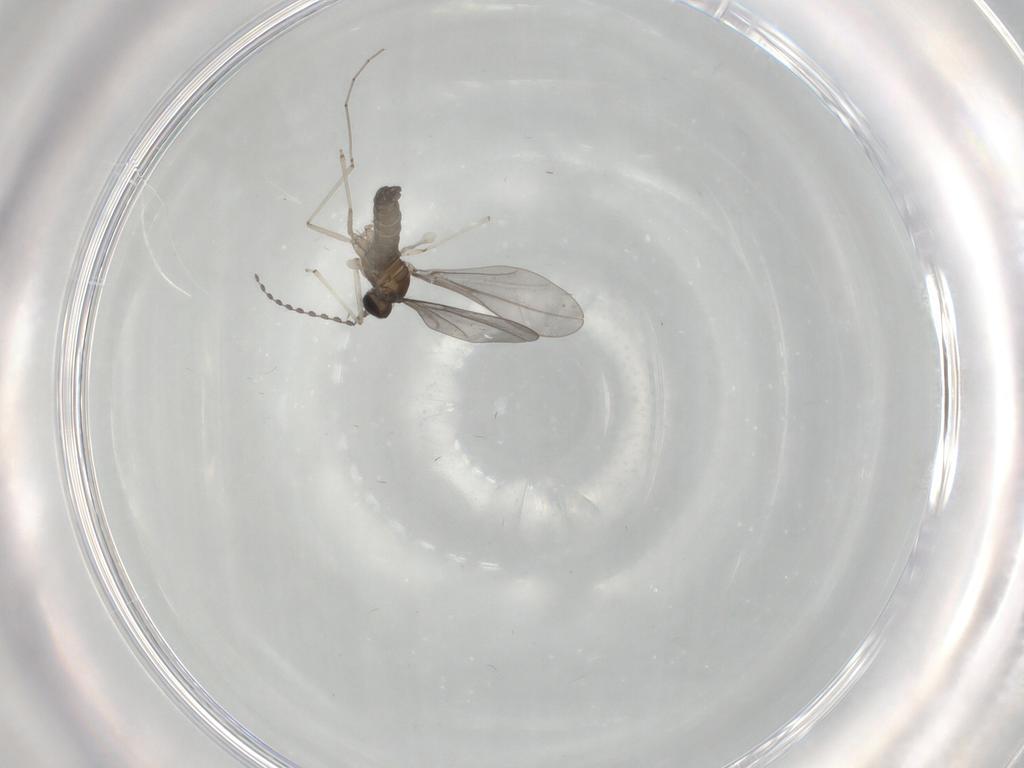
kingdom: Animalia
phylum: Arthropoda
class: Insecta
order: Diptera
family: Cecidomyiidae
